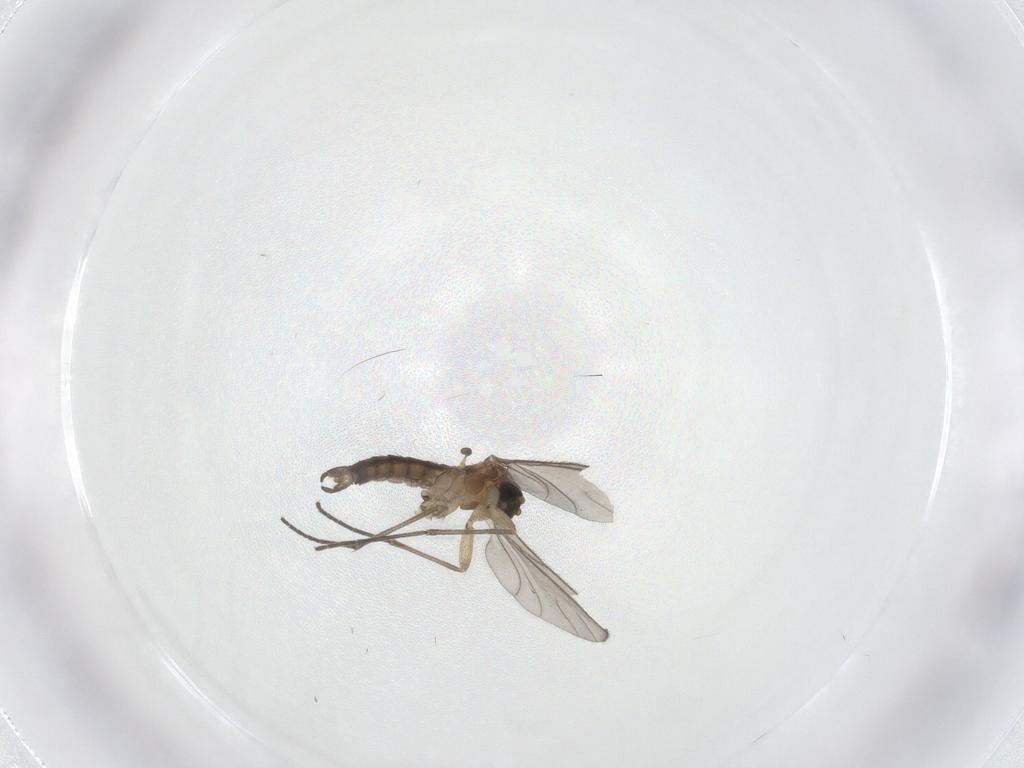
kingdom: Animalia
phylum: Arthropoda
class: Insecta
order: Diptera
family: Sciaridae
